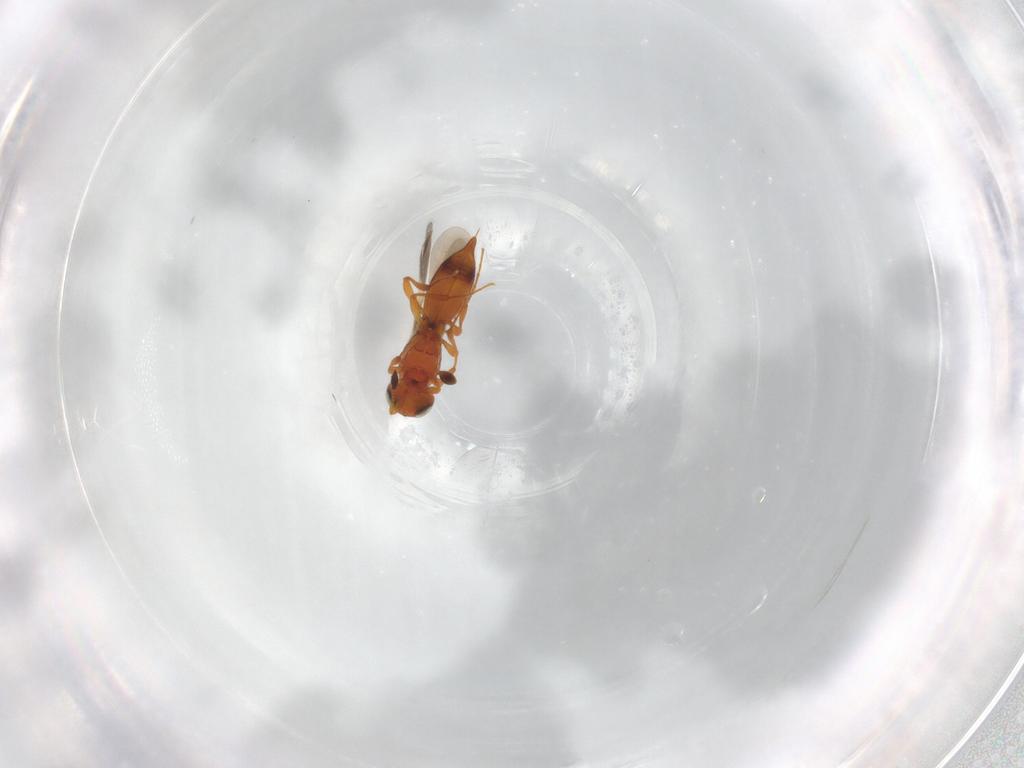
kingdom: Animalia
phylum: Arthropoda
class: Insecta
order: Hymenoptera
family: Platygastridae
